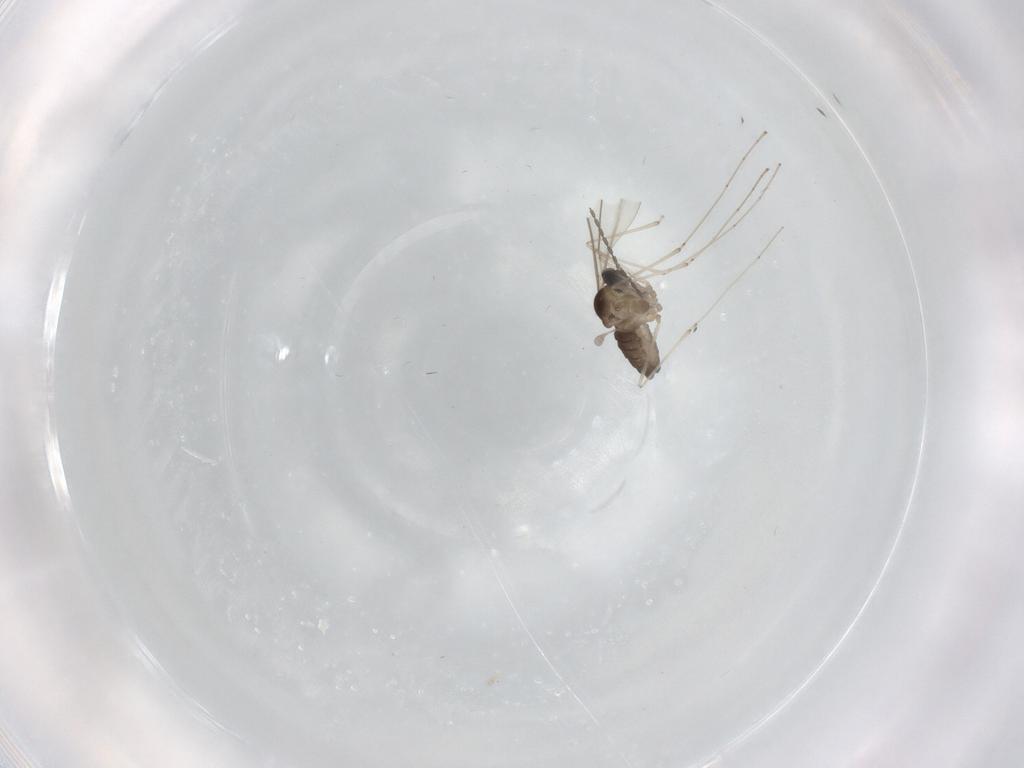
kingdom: Animalia
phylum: Arthropoda
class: Insecta
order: Diptera
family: Cecidomyiidae
